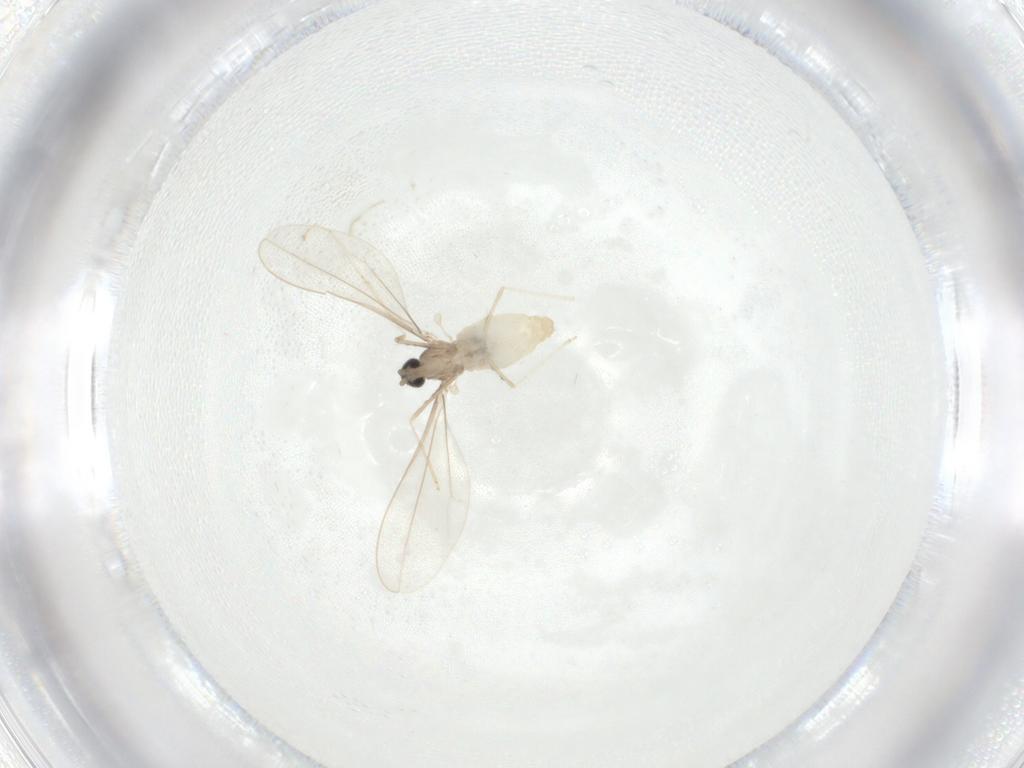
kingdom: Animalia
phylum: Arthropoda
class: Insecta
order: Diptera
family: Cecidomyiidae
